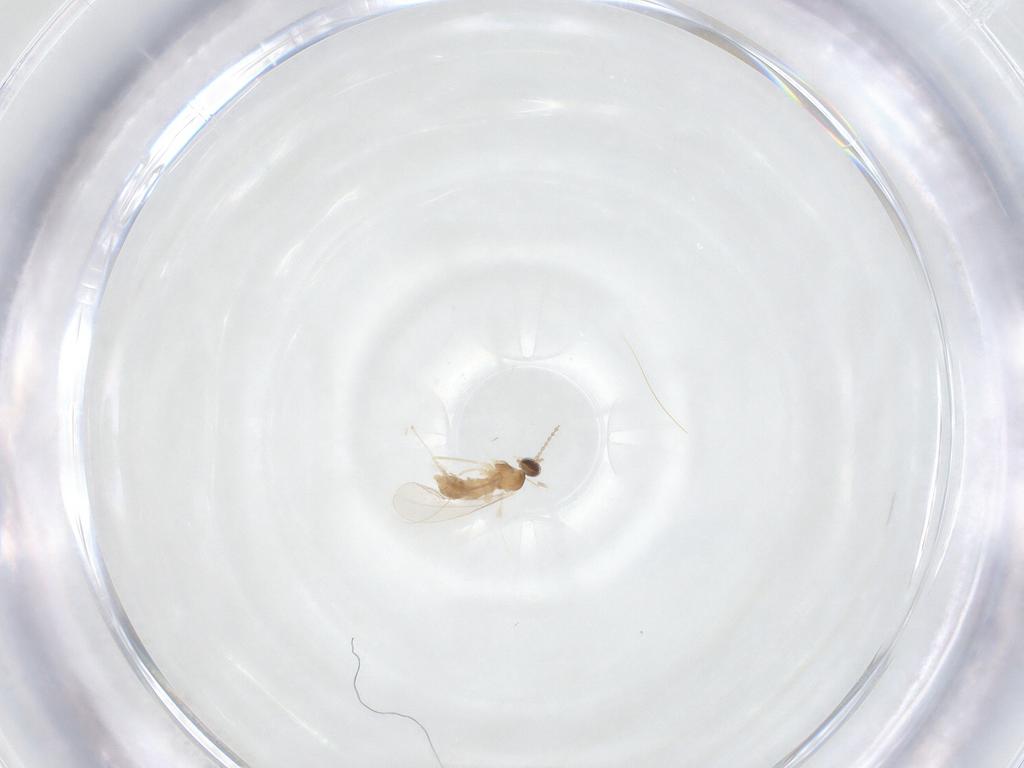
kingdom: Animalia
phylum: Arthropoda
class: Insecta
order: Diptera
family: Cecidomyiidae
